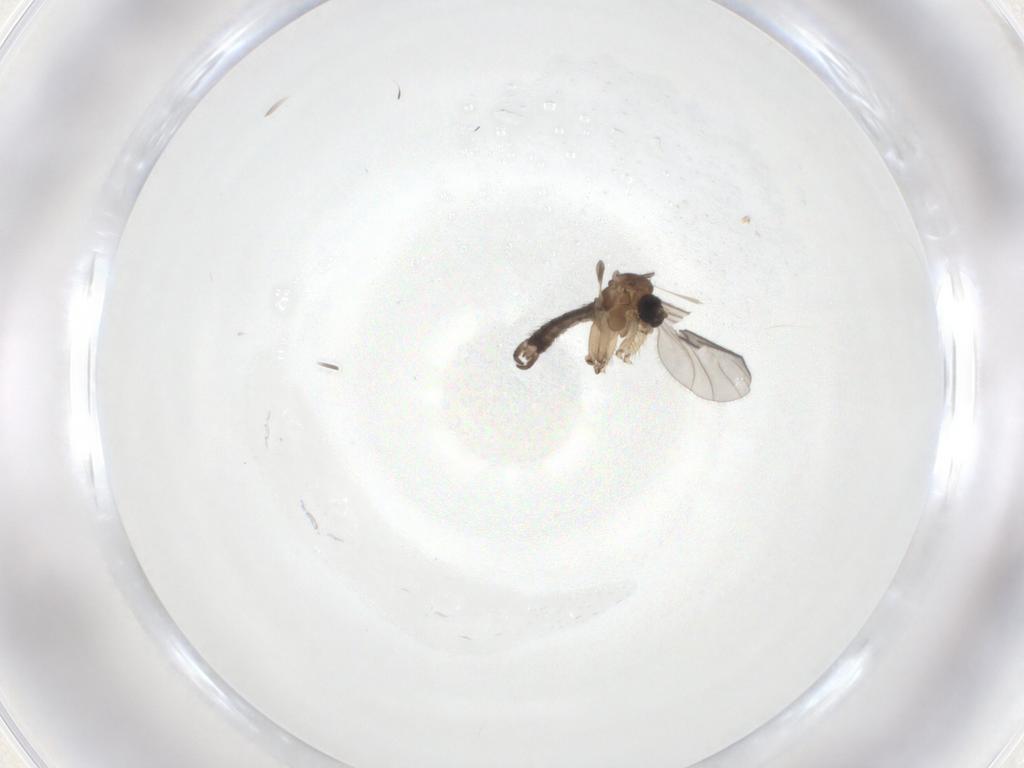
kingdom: Animalia
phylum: Arthropoda
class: Insecta
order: Diptera
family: Sciaridae
